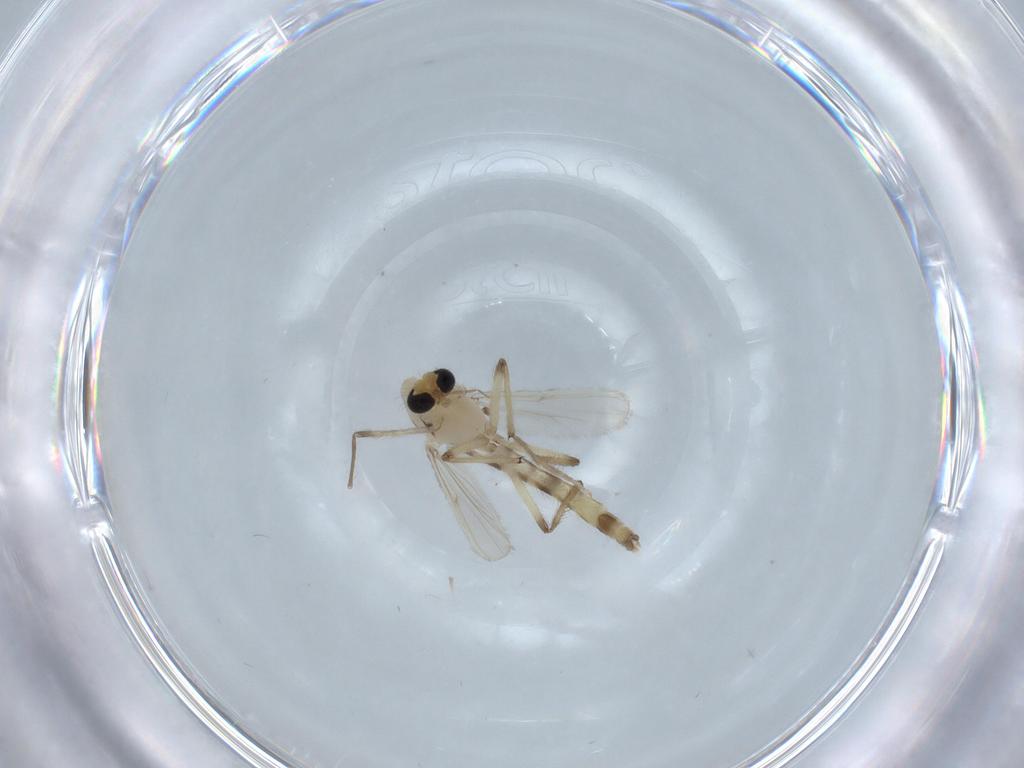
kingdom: Animalia
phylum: Arthropoda
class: Insecta
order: Diptera
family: Chironomidae
